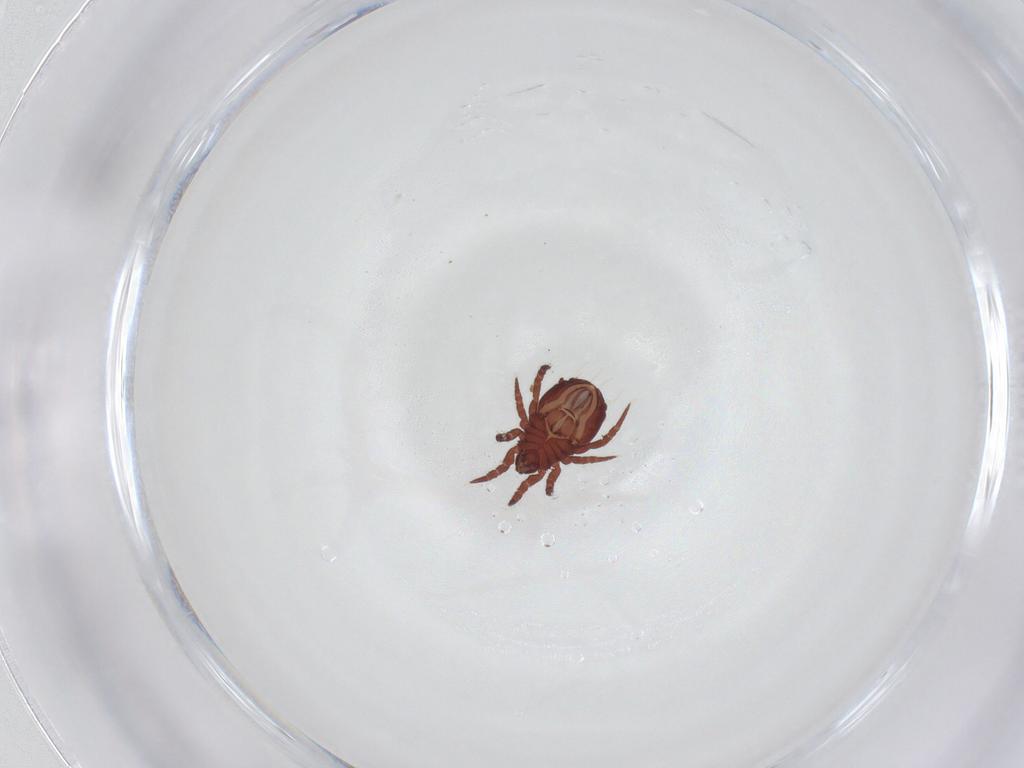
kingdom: Animalia
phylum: Arthropoda
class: Arachnida
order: Sarcoptiformes
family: Nothridae
